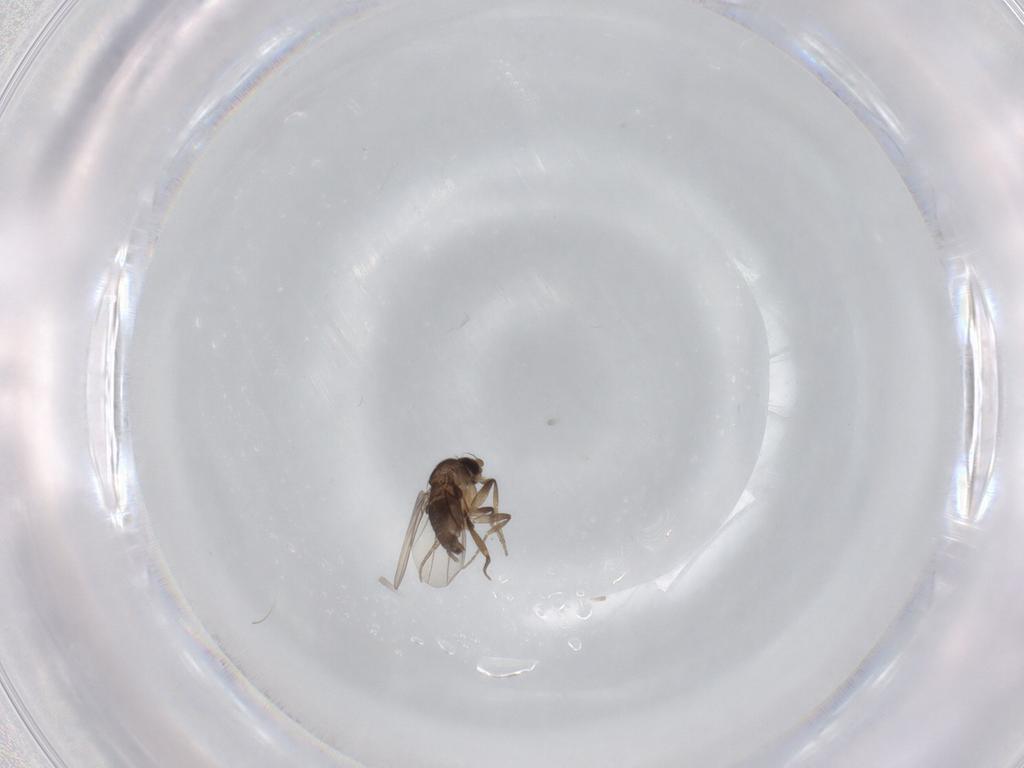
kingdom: Animalia
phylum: Arthropoda
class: Insecta
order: Diptera
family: Phoridae
